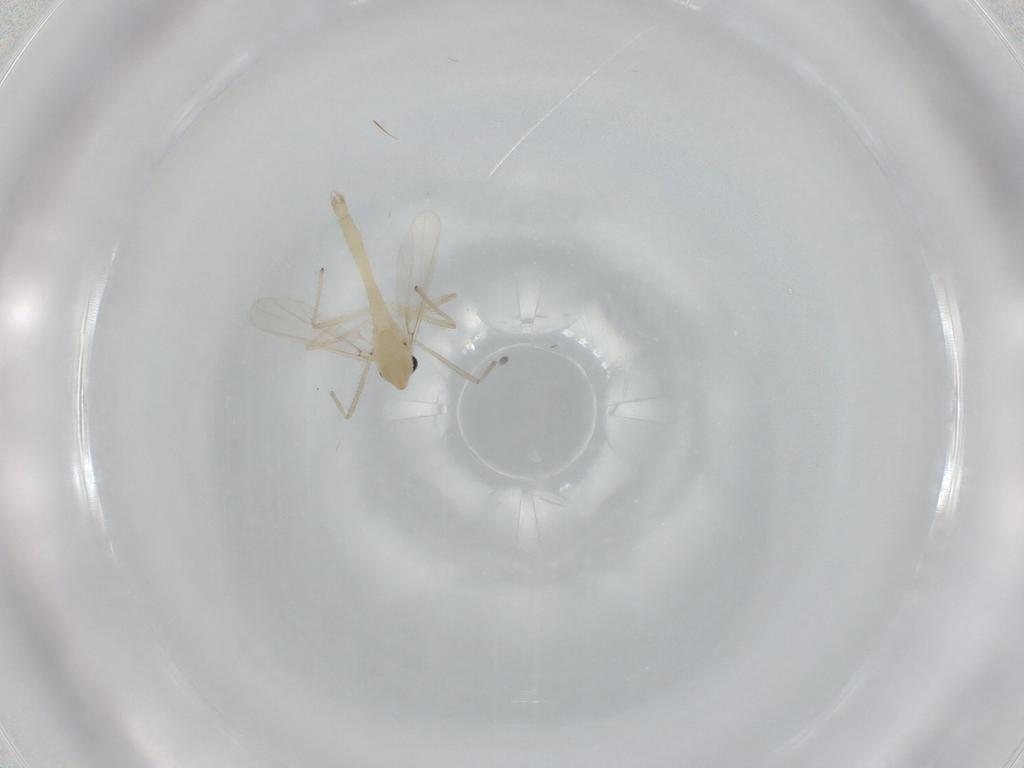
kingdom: Animalia
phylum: Arthropoda
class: Insecta
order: Diptera
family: Chironomidae
